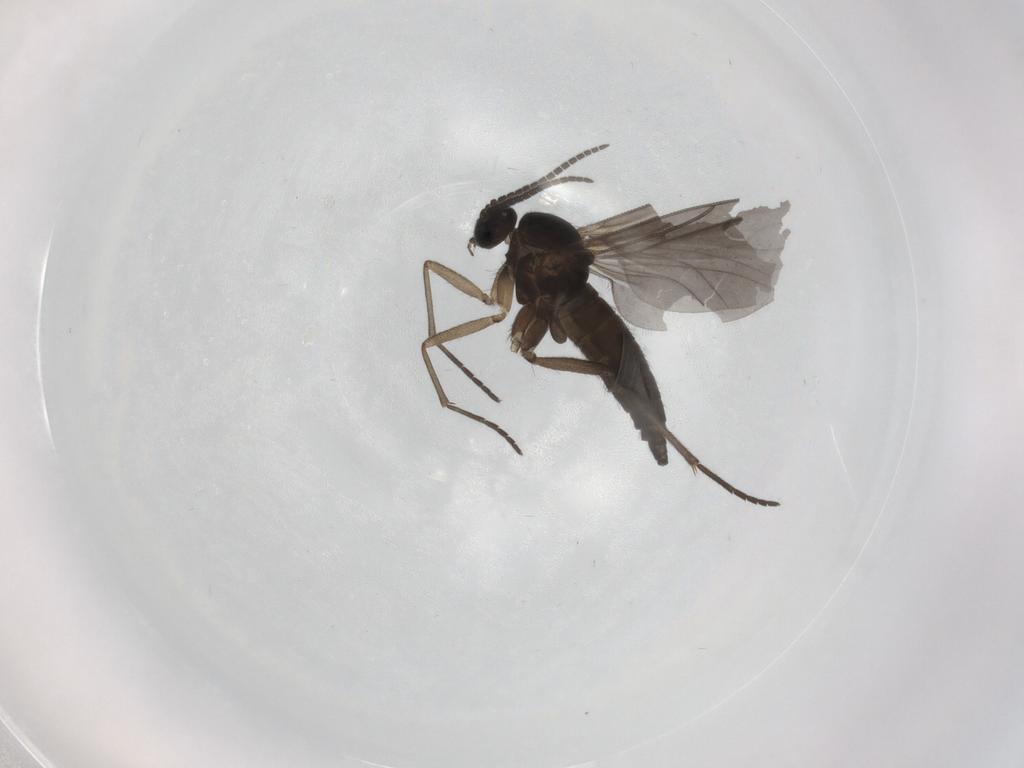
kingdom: Animalia
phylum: Arthropoda
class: Insecta
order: Diptera
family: Sciaridae
